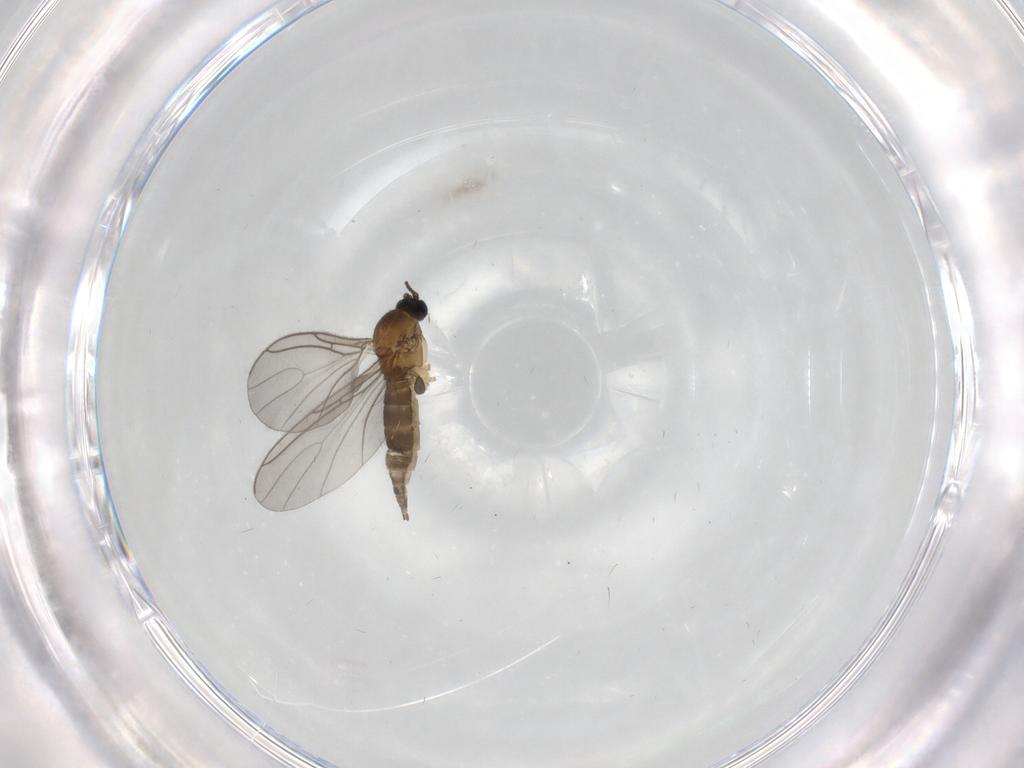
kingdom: Animalia
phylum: Arthropoda
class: Insecta
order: Diptera
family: Sciaridae
